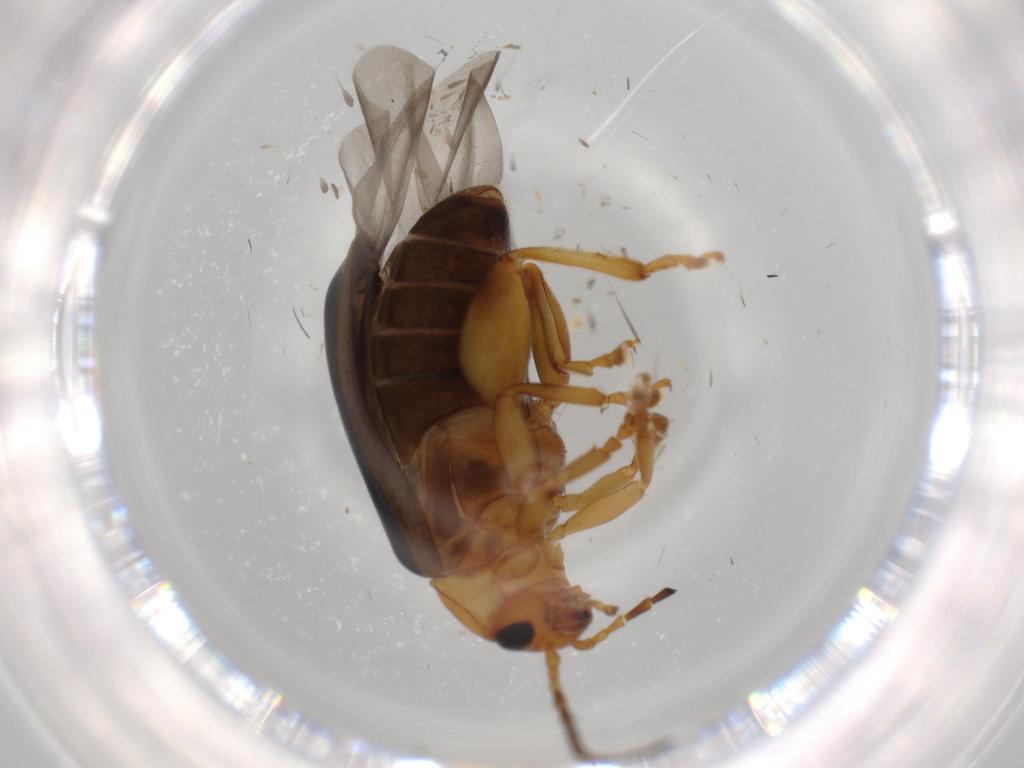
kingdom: Animalia
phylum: Arthropoda
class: Insecta
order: Coleoptera
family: Chrysomelidae
